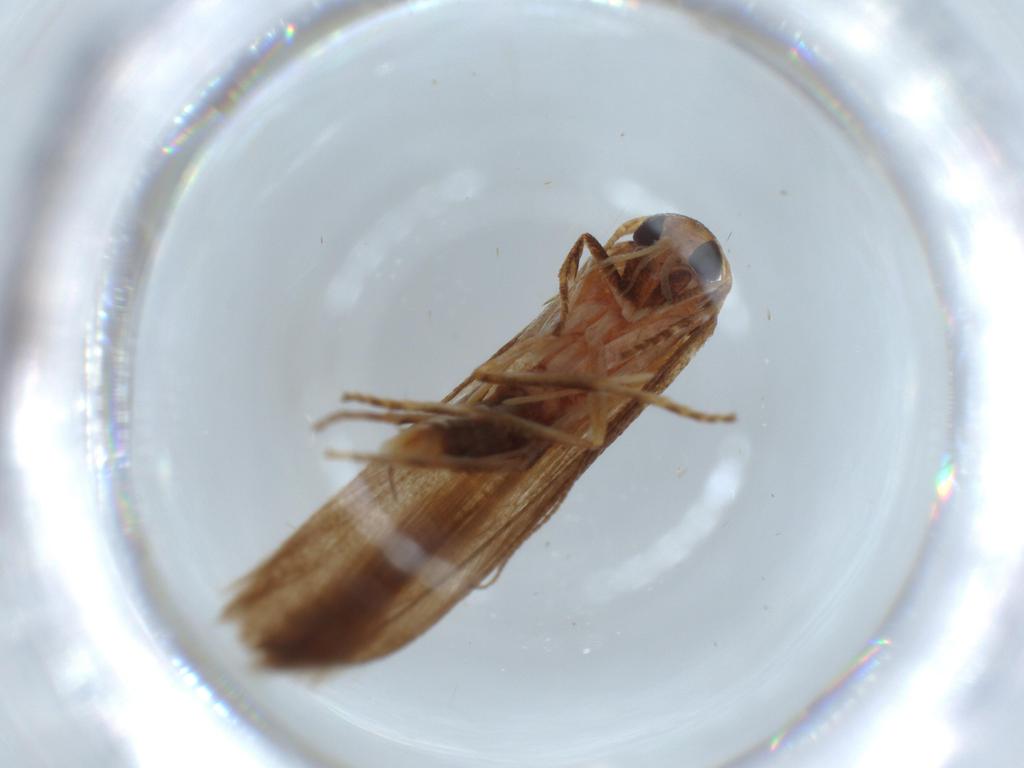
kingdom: Animalia
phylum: Arthropoda
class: Insecta
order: Lepidoptera
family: Stathmopodidae
